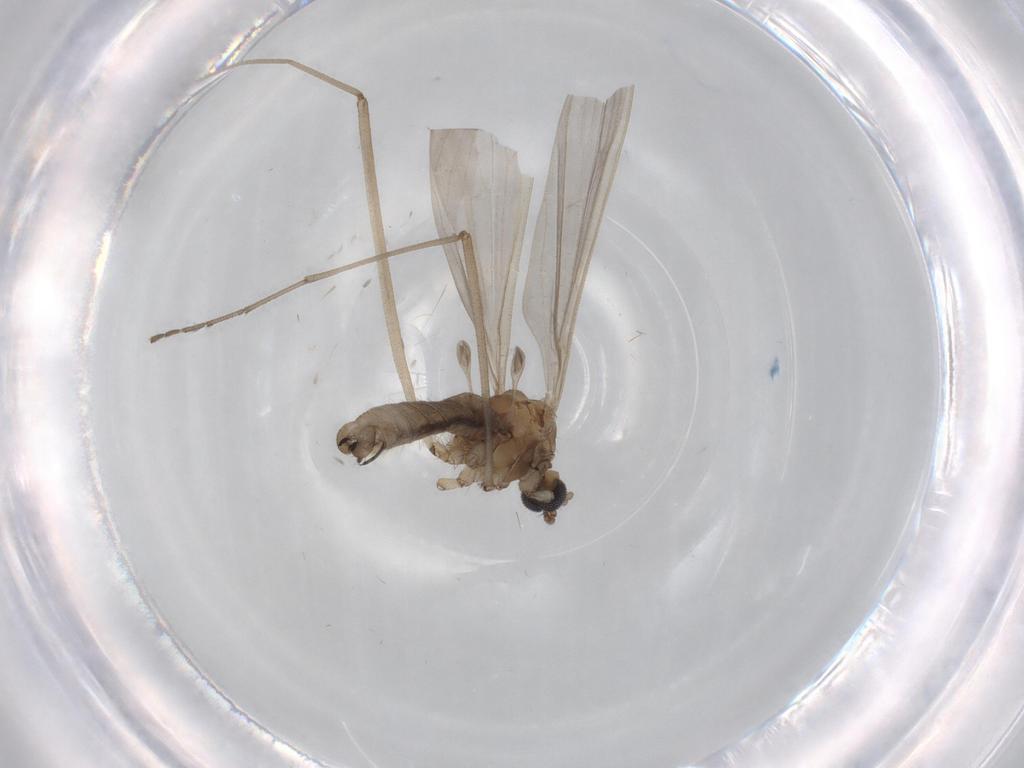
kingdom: Animalia
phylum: Arthropoda
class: Insecta
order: Diptera
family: Limoniidae
